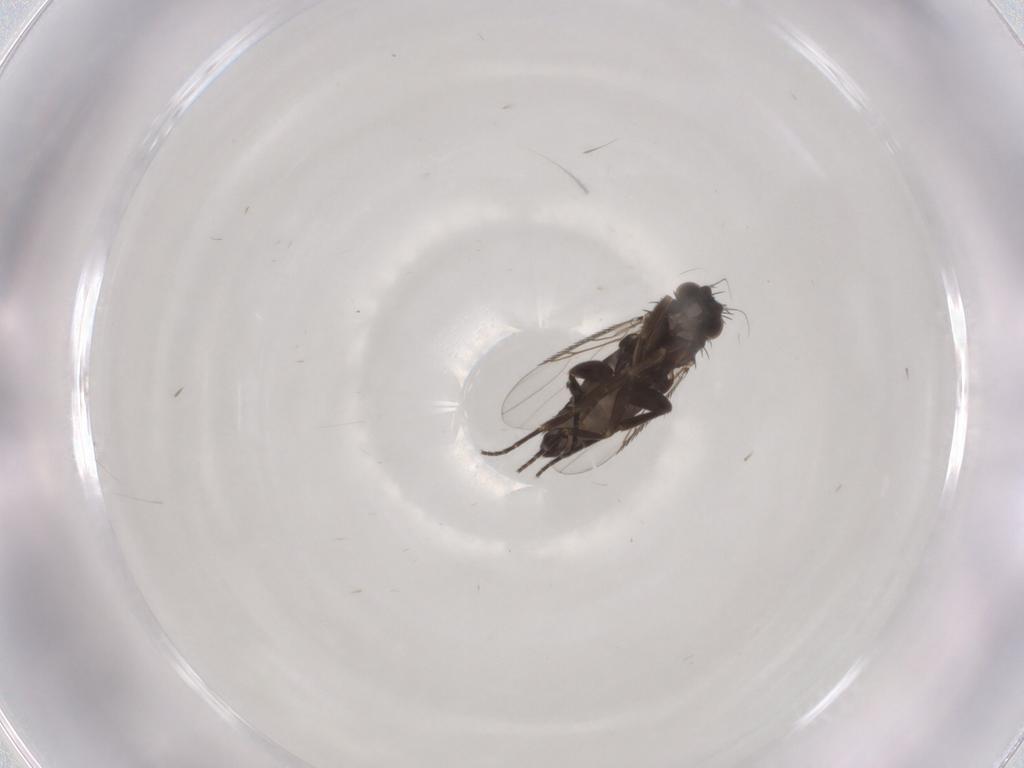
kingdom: Animalia
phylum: Arthropoda
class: Insecta
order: Diptera
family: Phoridae
